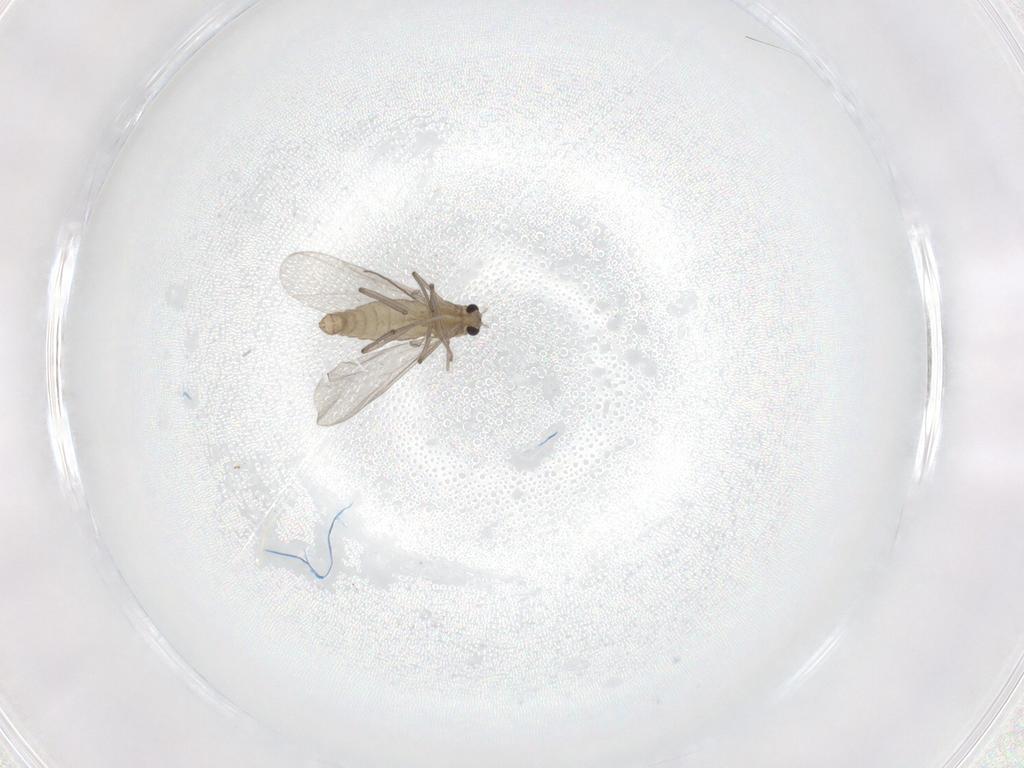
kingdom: Animalia
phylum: Arthropoda
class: Insecta
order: Diptera
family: Chironomidae
